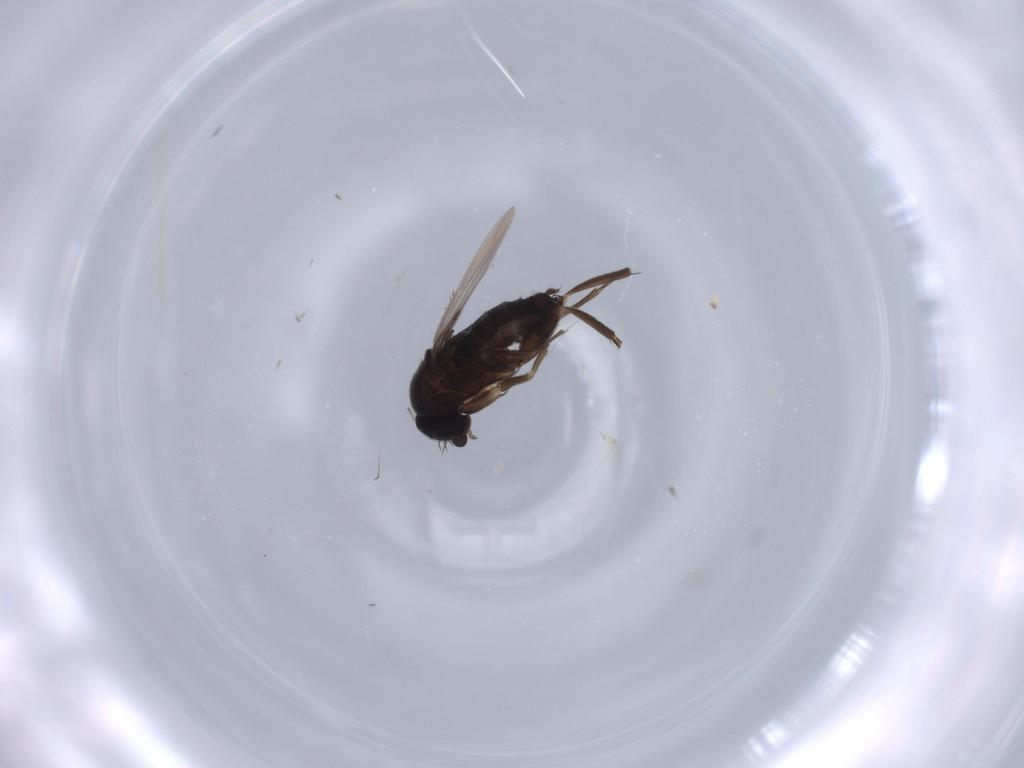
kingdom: Animalia
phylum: Arthropoda
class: Insecta
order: Diptera
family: Ceratopogonidae
